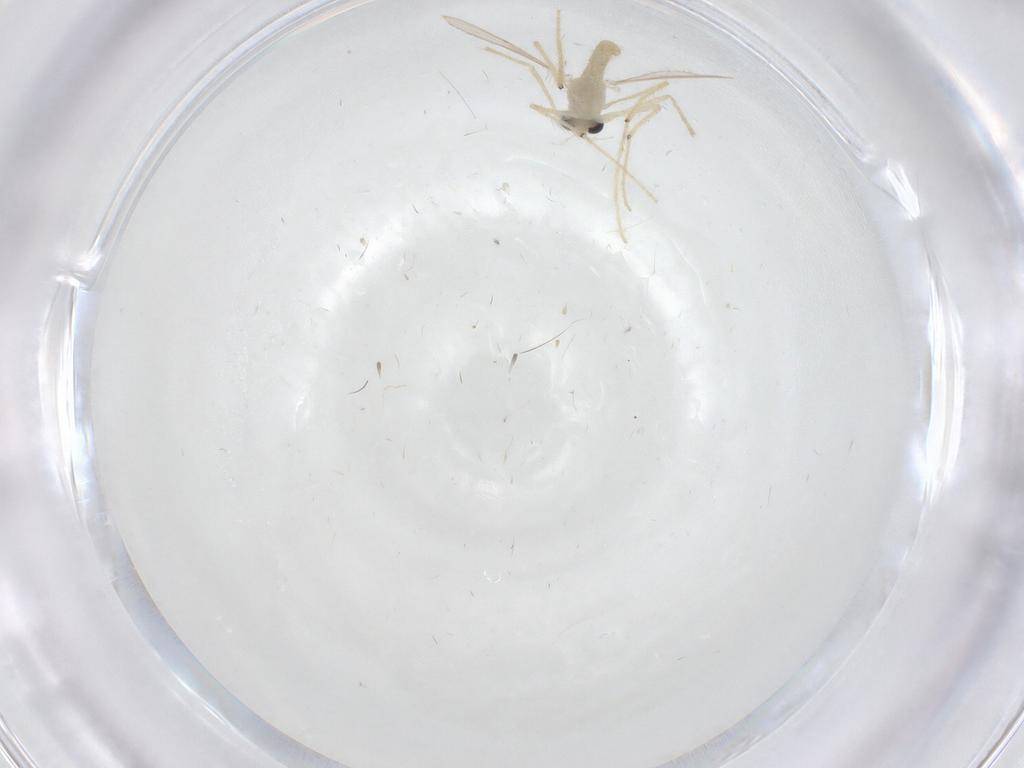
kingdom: Animalia
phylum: Arthropoda
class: Insecta
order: Diptera
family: Chironomidae
